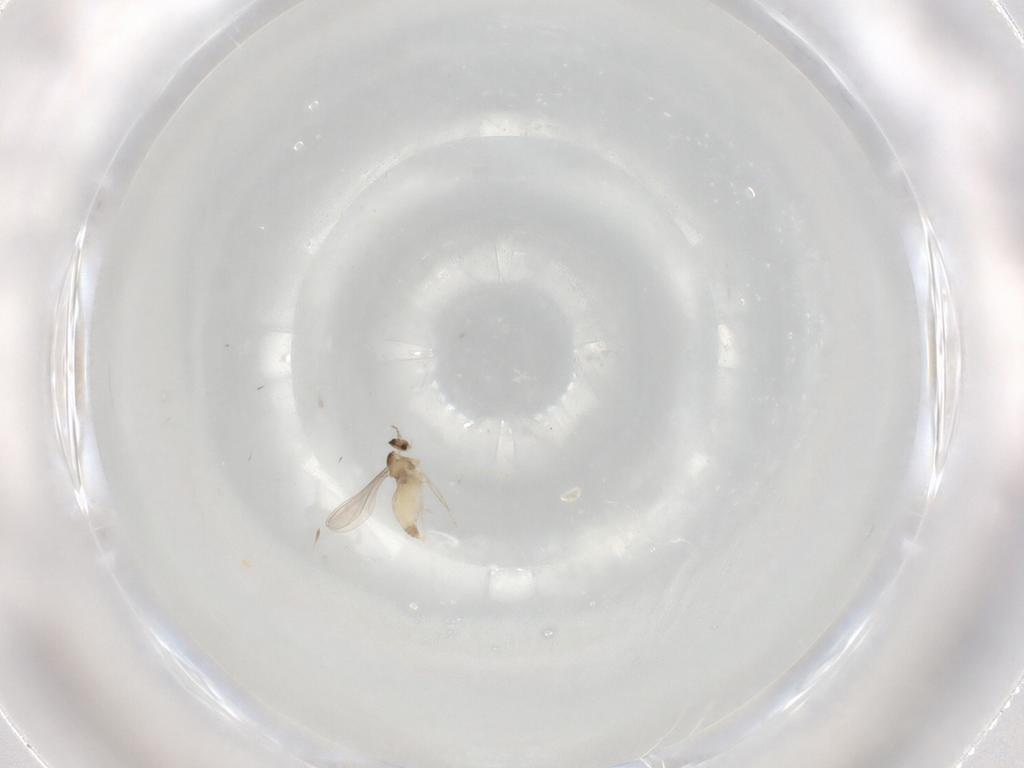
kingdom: Animalia
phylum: Arthropoda
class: Insecta
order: Diptera
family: Cecidomyiidae
